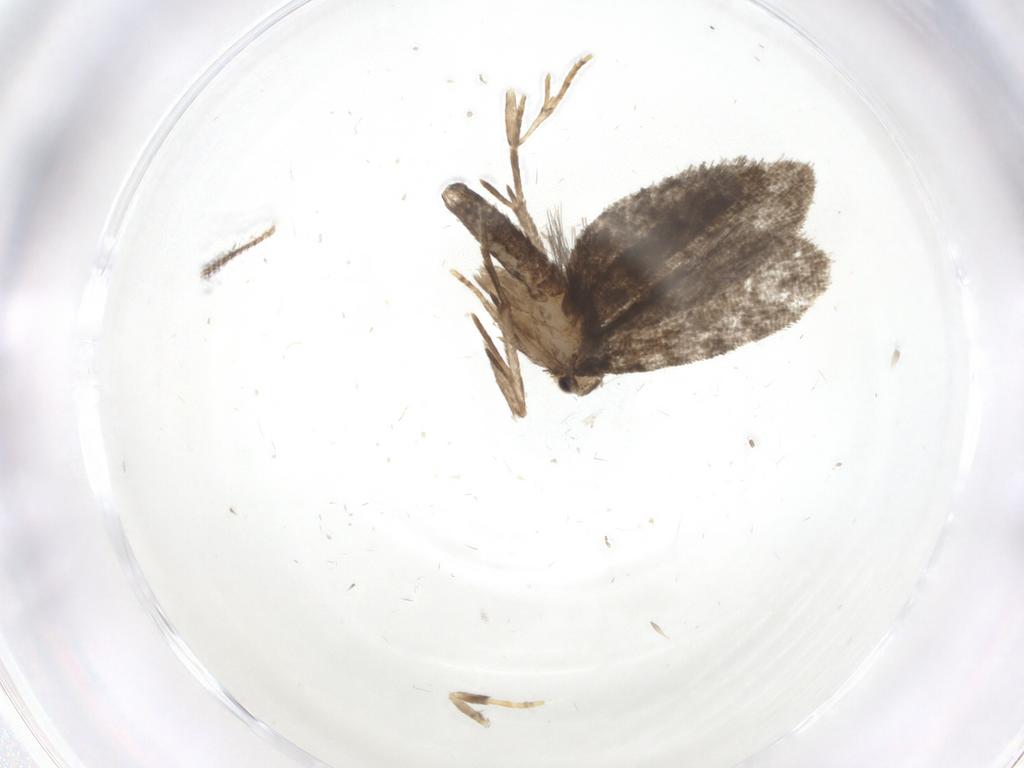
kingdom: Animalia
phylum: Arthropoda
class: Insecta
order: Lepidoptera
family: Psychidae
